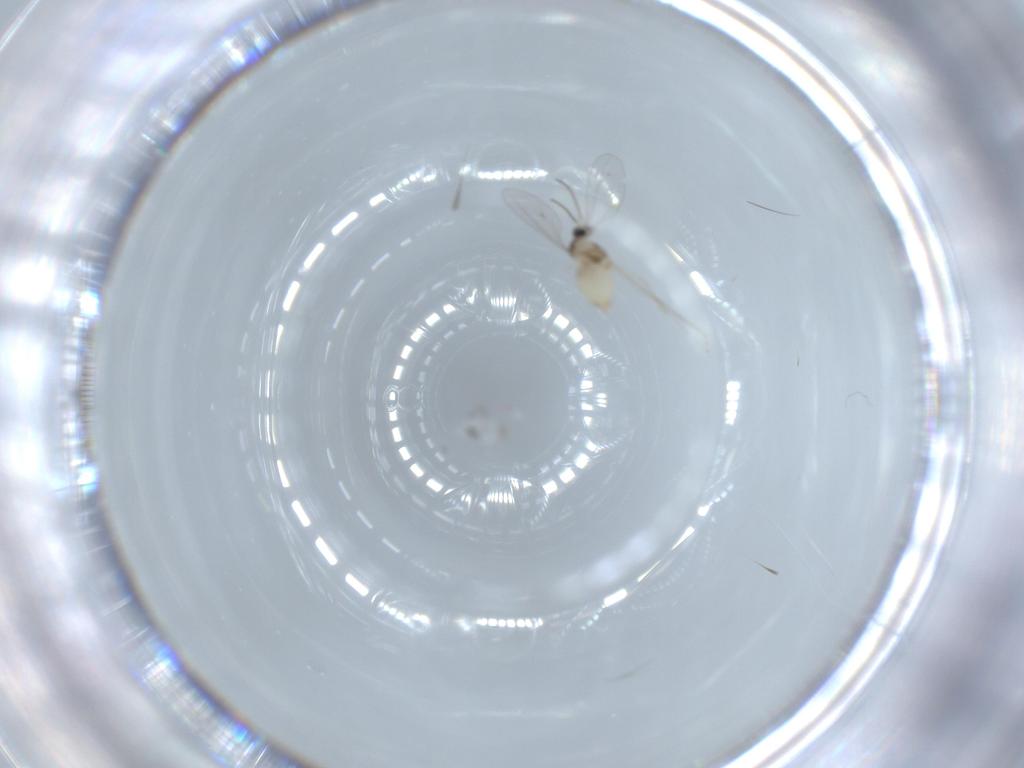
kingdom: Animalia
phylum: Arthropoda
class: Insecta
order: Diptera
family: Cecidomyiidae
